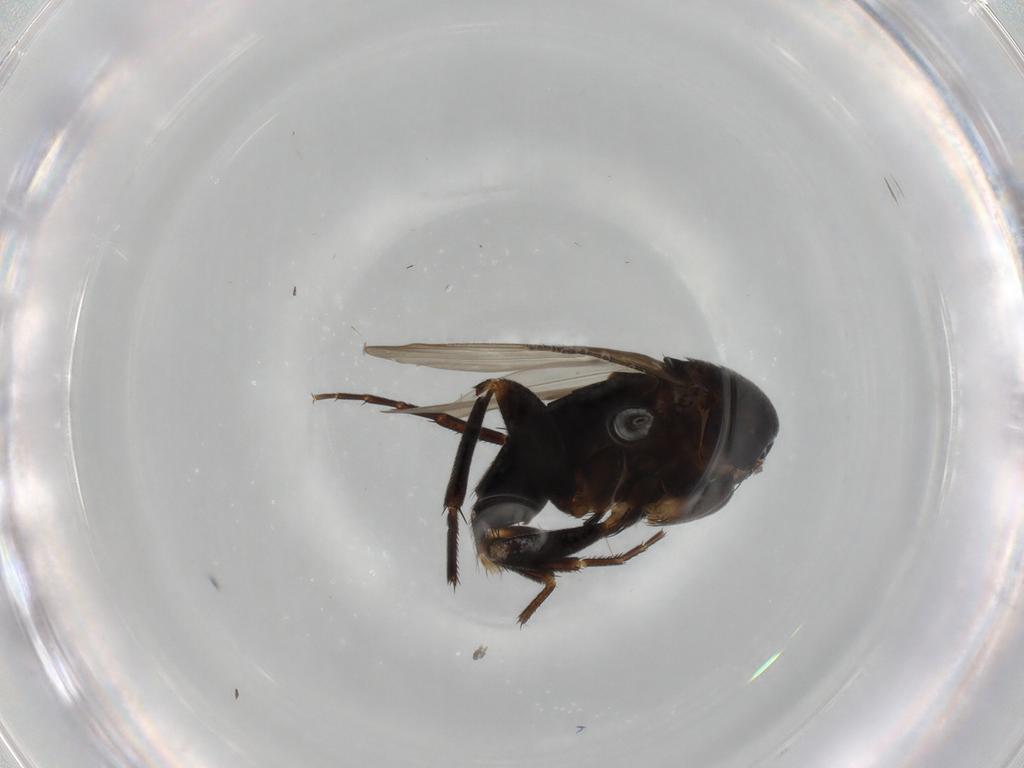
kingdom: Animalia
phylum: Arthropoda
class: Insecta
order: Diptera
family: Phoridae
